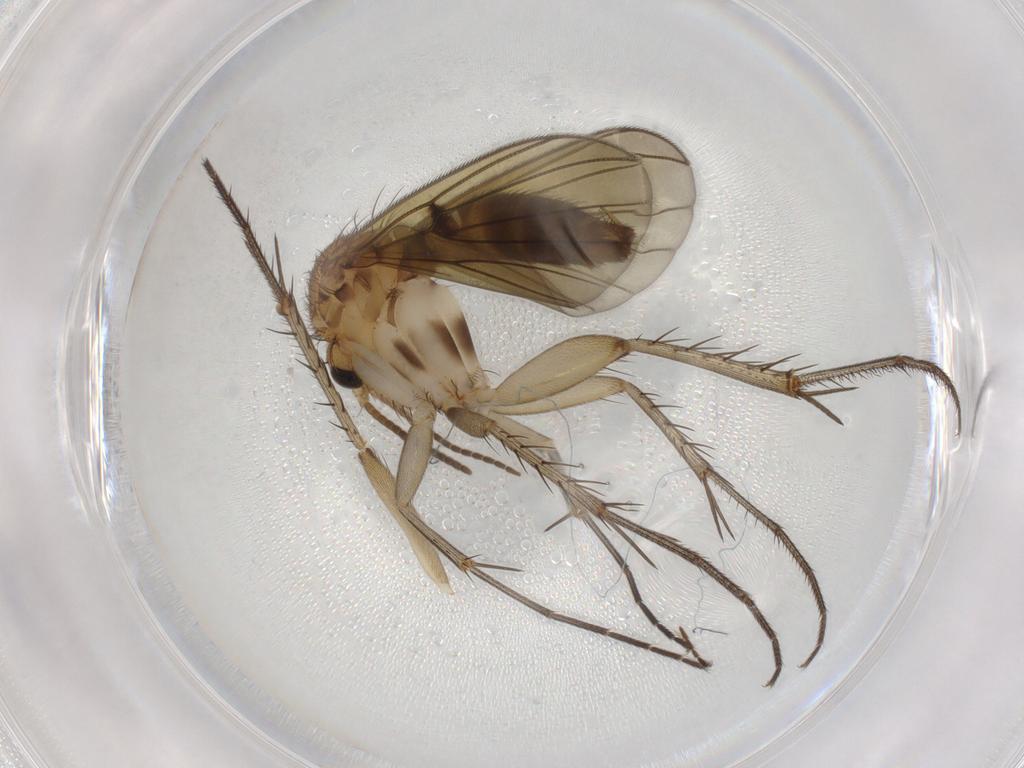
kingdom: Animalia
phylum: Arthropoda
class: Insecta
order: Diptera
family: Mycetophilidae
